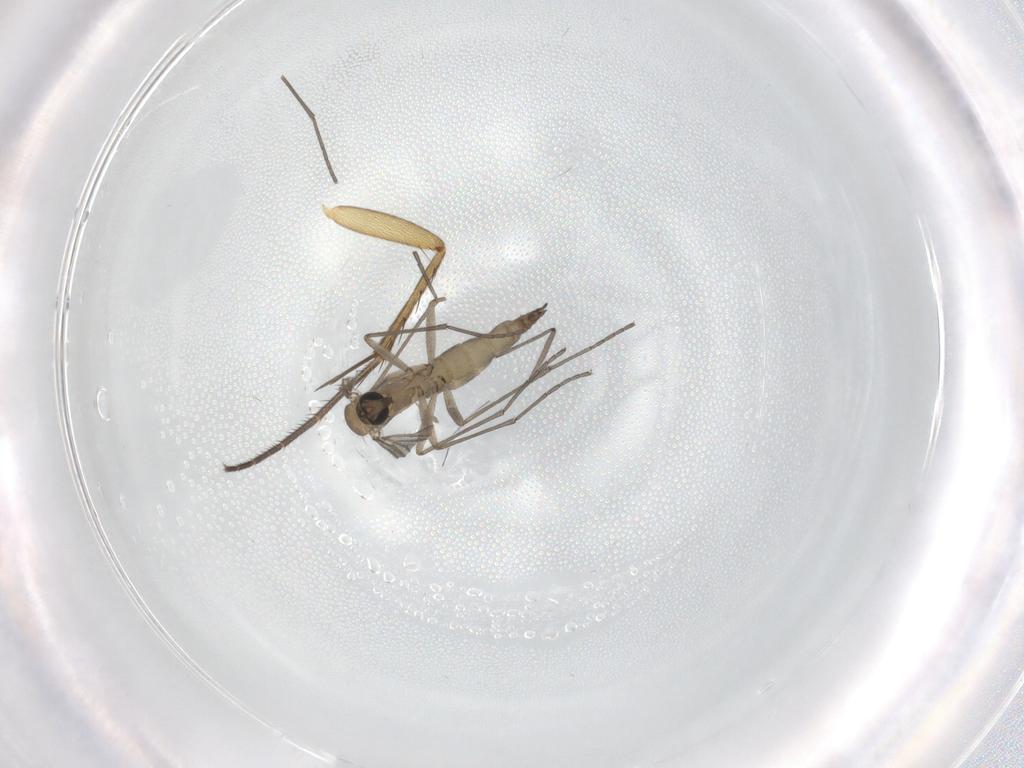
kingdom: Animalia
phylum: Arthropoda
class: Insecta
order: Diptera
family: Sciaridae
